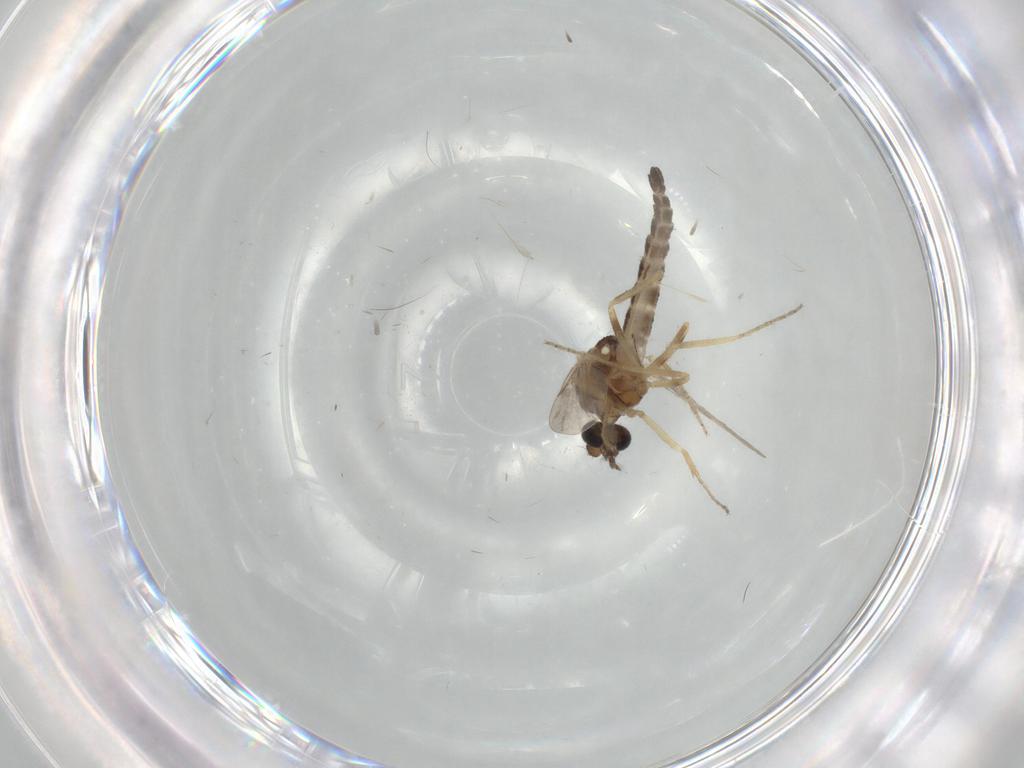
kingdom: Animalia
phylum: Arthropoda
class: Insecta
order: Diptera
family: Ceratopogonidae
